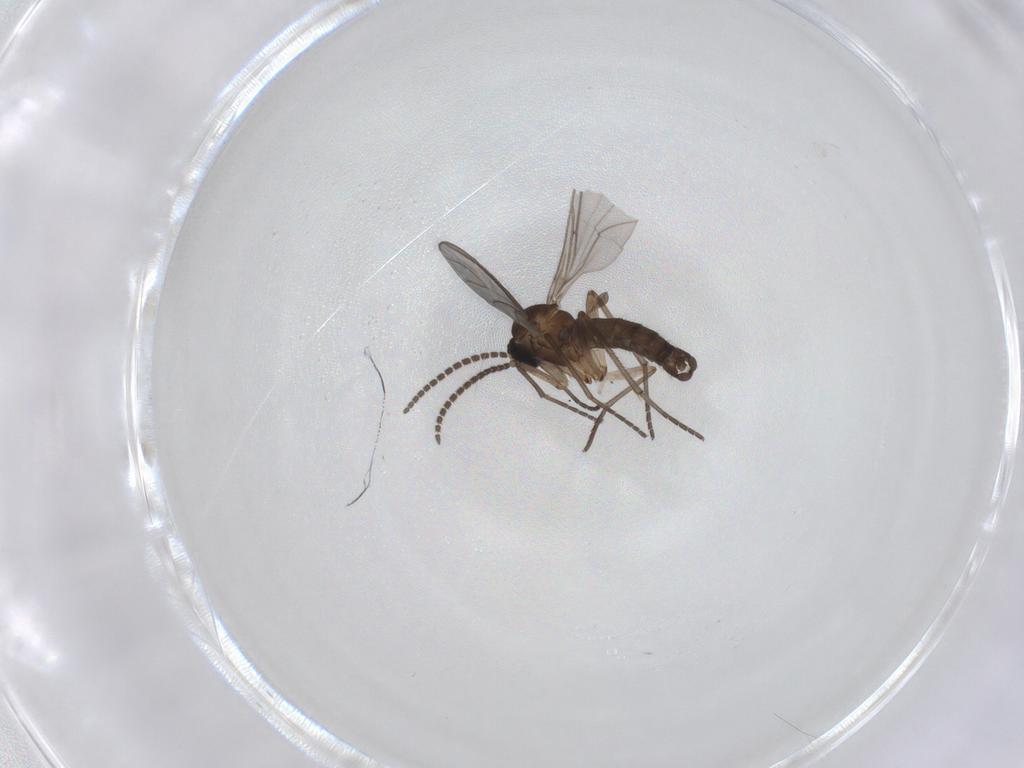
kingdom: Animalia
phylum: Arthropoda
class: Insecta
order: Diptera
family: Sciaridae
